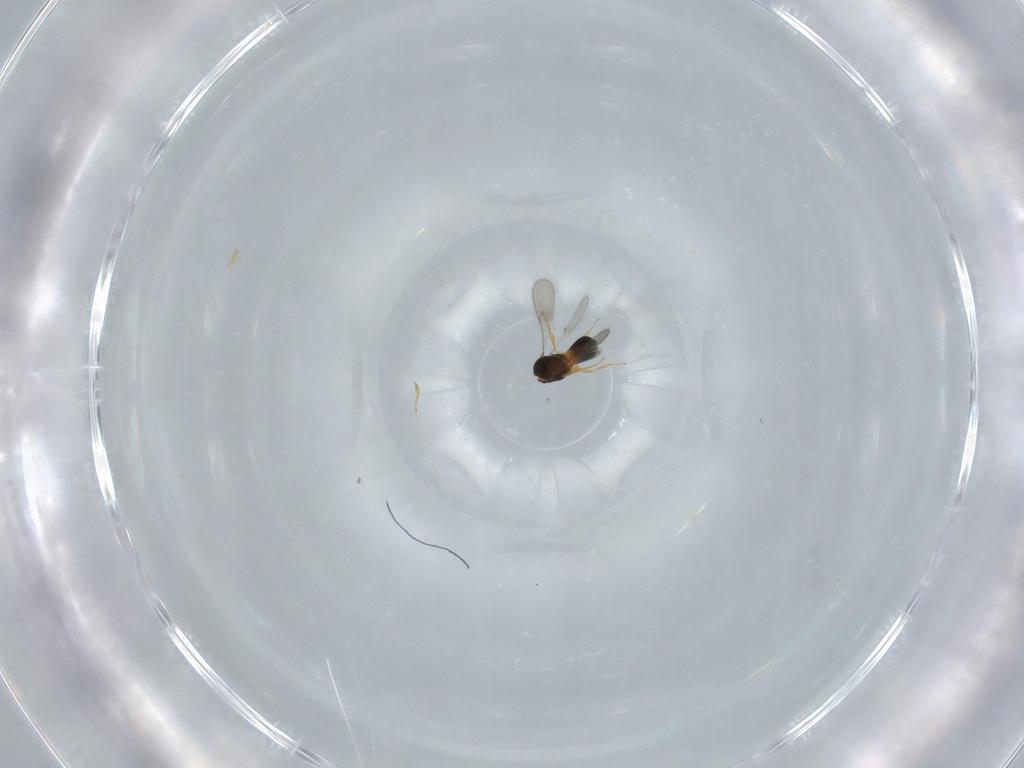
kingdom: Animalia
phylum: Arthropoda
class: Insecta
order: Hymenoptera
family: Scelionidae
